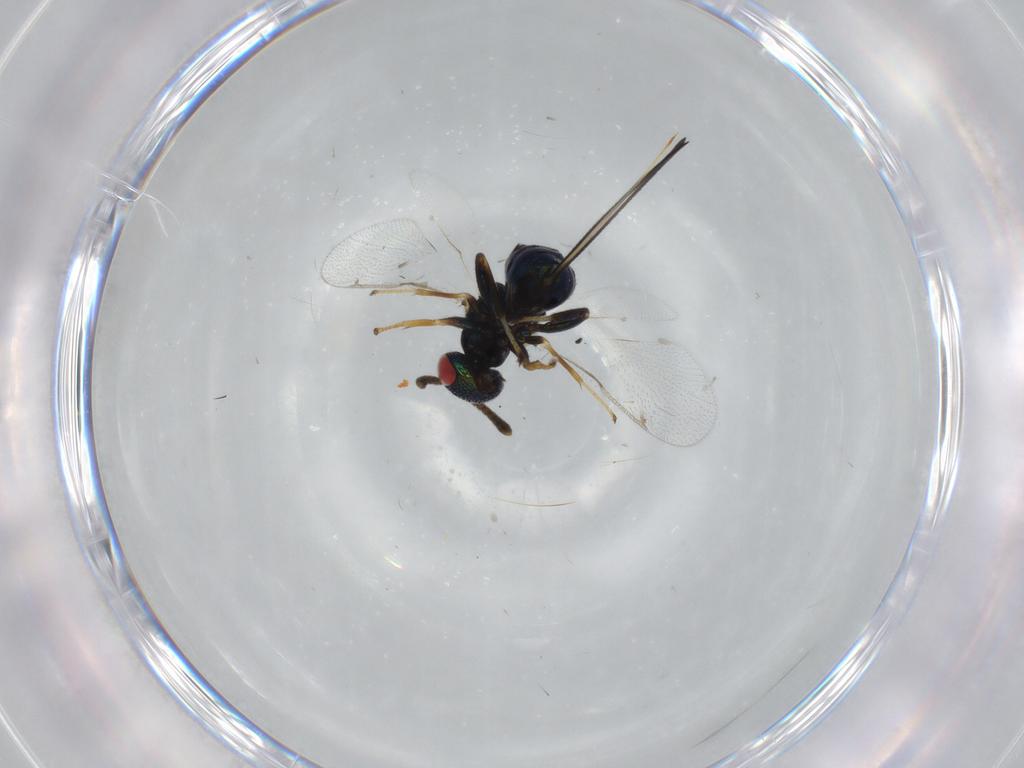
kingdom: Animalia
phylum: Arthropoda
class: Insecta
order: Hymenoptera
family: Torymidae
